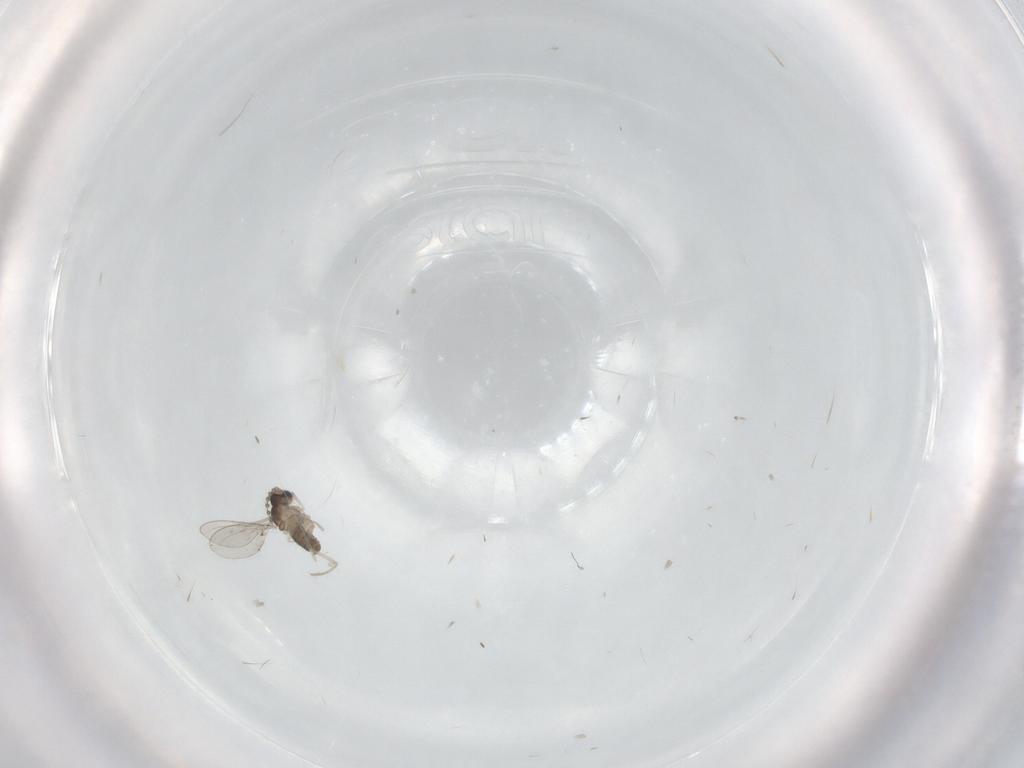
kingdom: Animalia
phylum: Arthropoda
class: Insecta
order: Diptera
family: Cecidomyiidae
